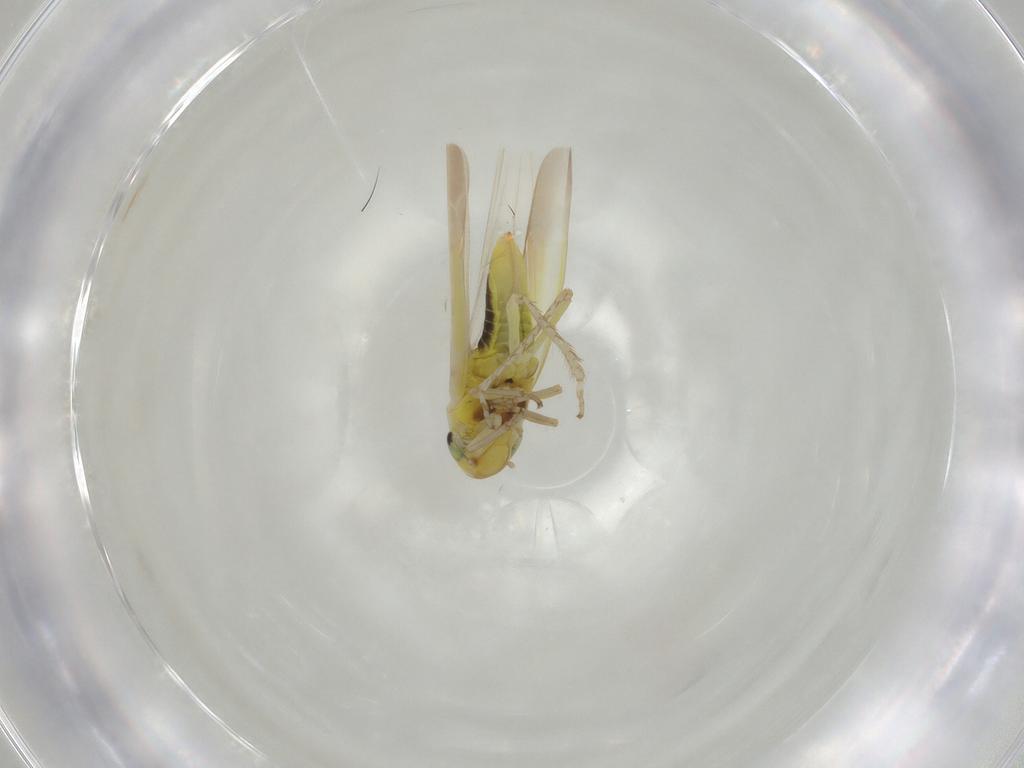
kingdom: Animalia
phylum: Arthropoda
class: Insecta
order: Hemiptera
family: Cicadellidae
